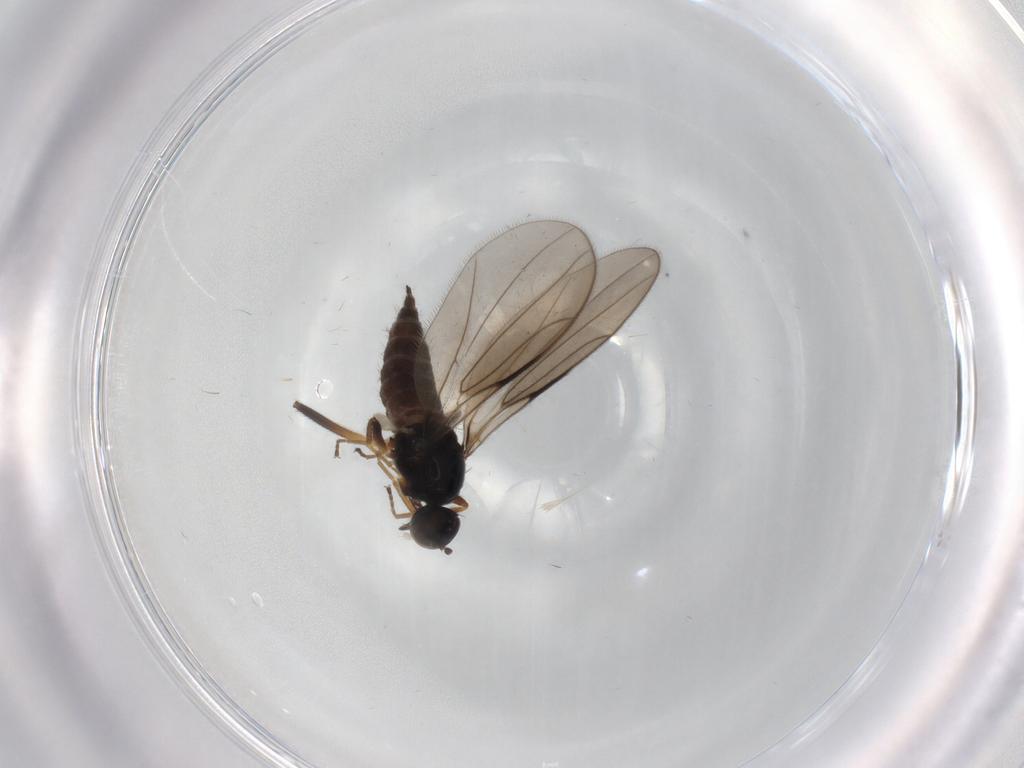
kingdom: Animalia
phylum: Arthropoda
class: Insecta
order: Diptera
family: Hybotidae
